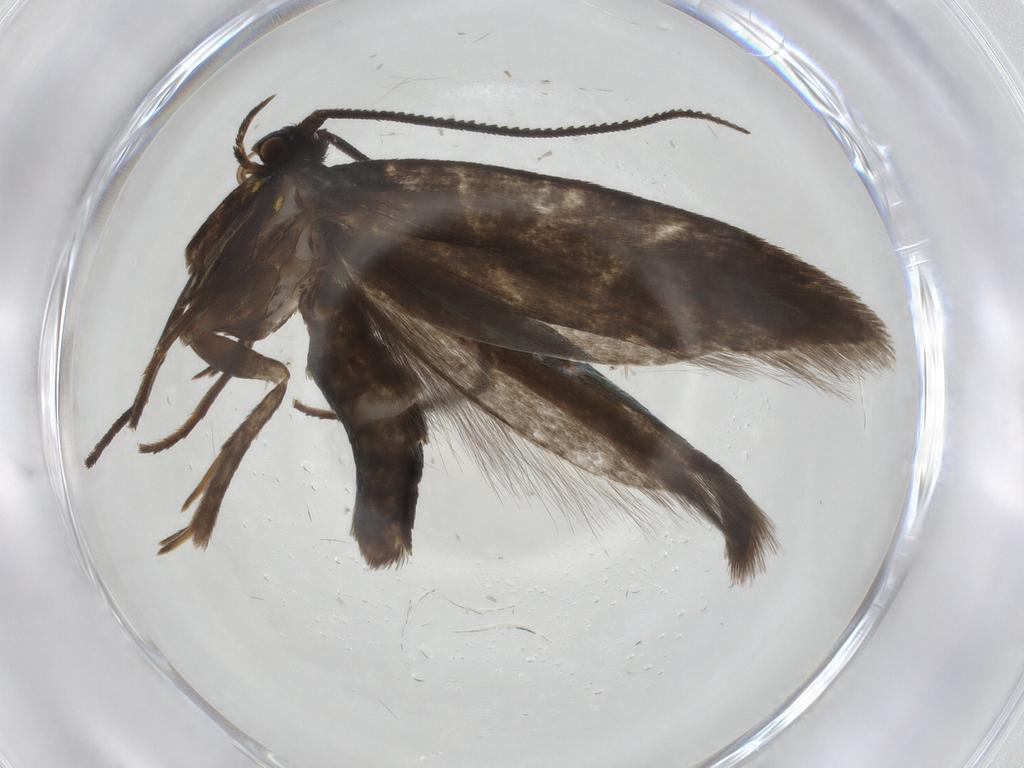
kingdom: Animalia
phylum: Arthropoda
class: Insecta
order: Lepidoptera
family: Argyresthiidae
